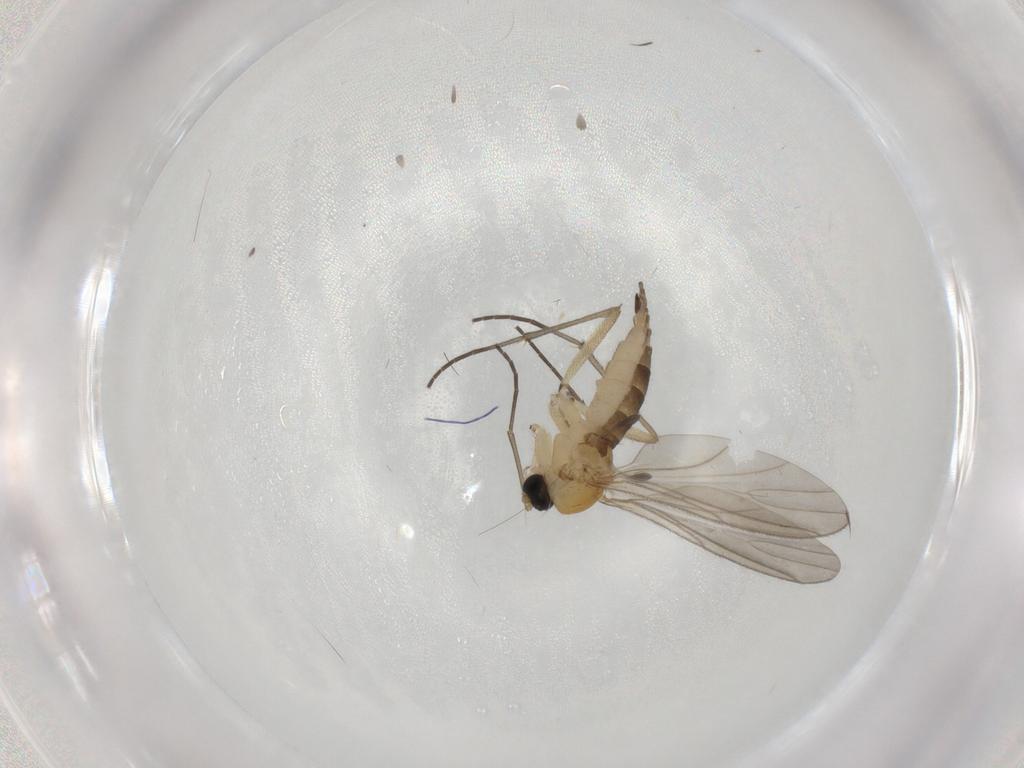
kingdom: Animalia
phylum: Arthropoda
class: Insecta
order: Diptera
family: Sciaridae
